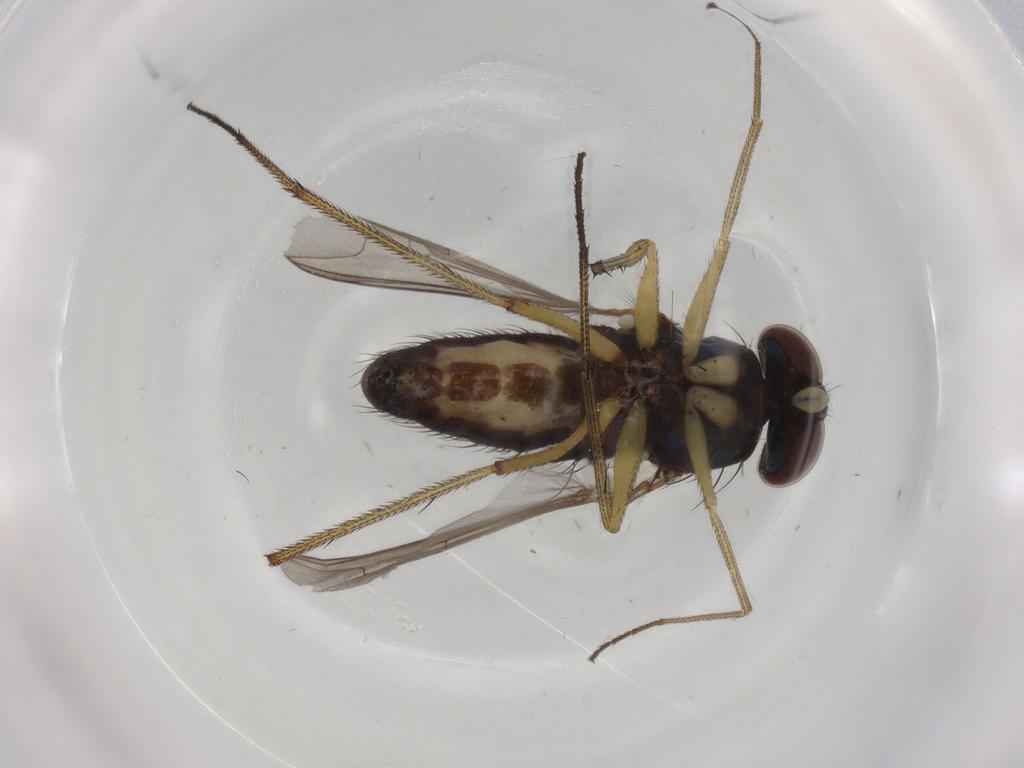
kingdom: Animalia
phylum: Arthropoda
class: Insecta
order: Diptera
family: Dolichopodidae
